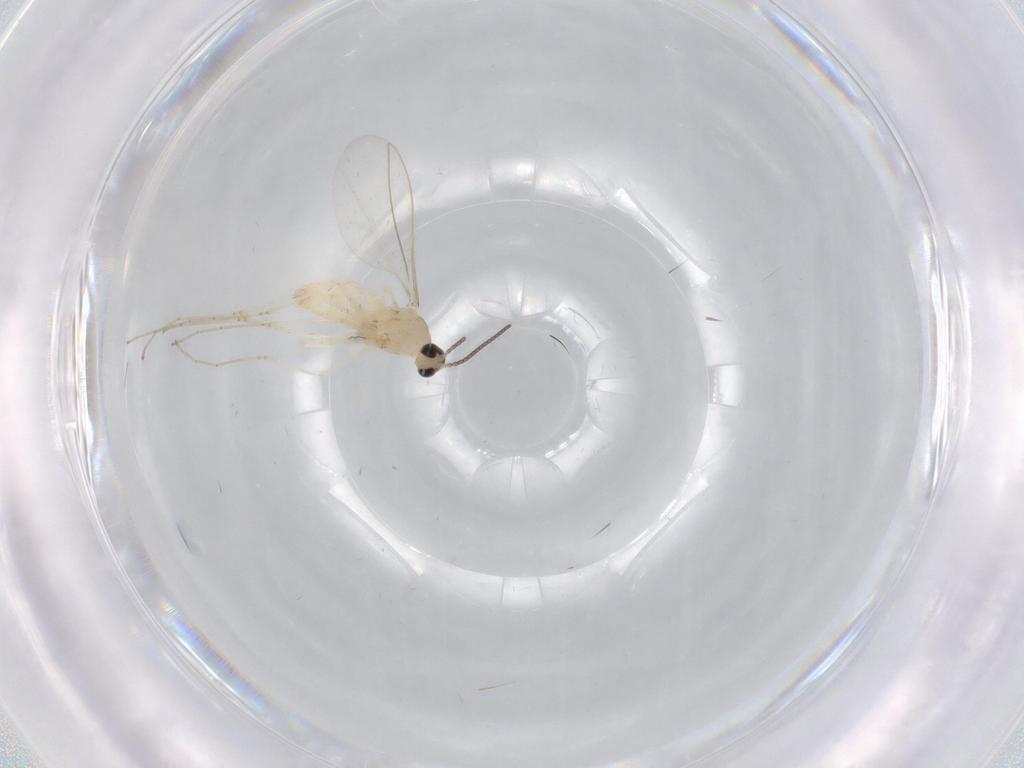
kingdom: Animalia
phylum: Arthropoda
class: Insecta
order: Diptera
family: Cecidomyiidae
